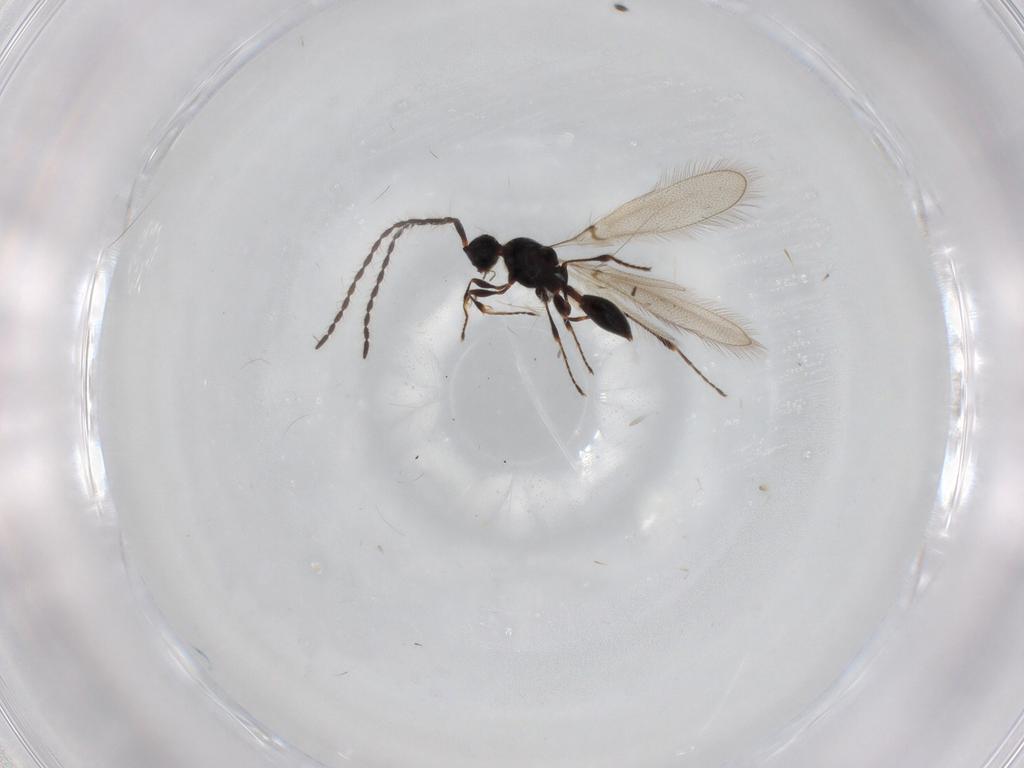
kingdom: Animalia
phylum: Arthropoda
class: Insecta
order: Hymenoptera
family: Diapriidae
